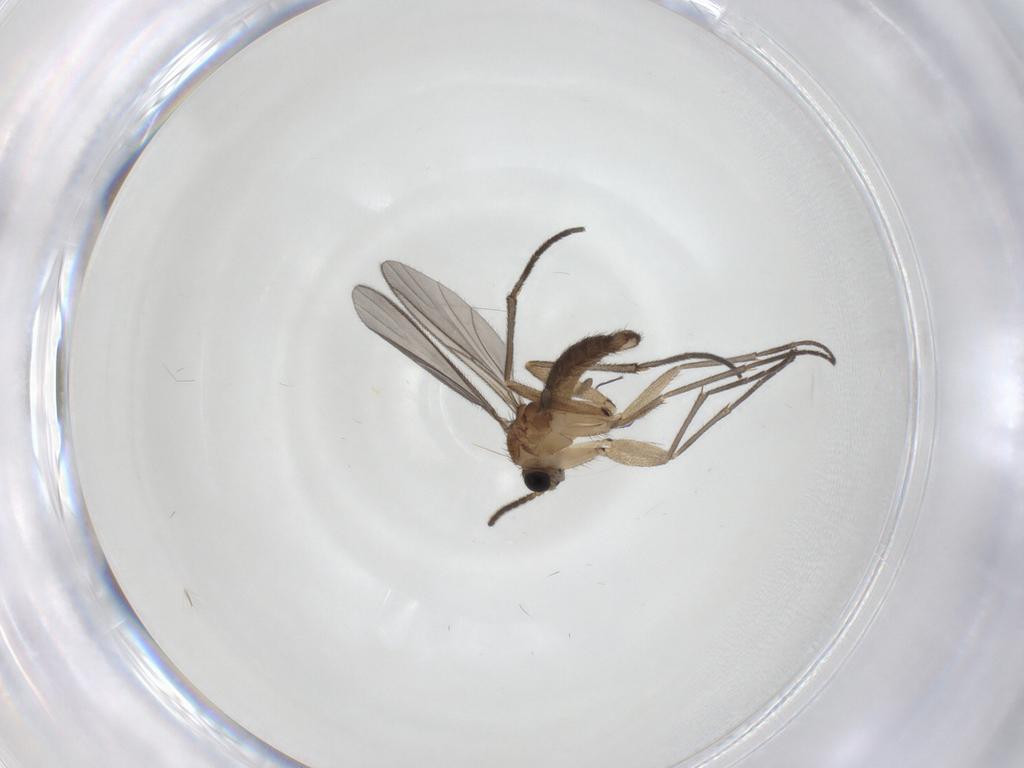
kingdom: Animalia
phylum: Arthropoda
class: Insecta
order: Diptera
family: Sciaridae
